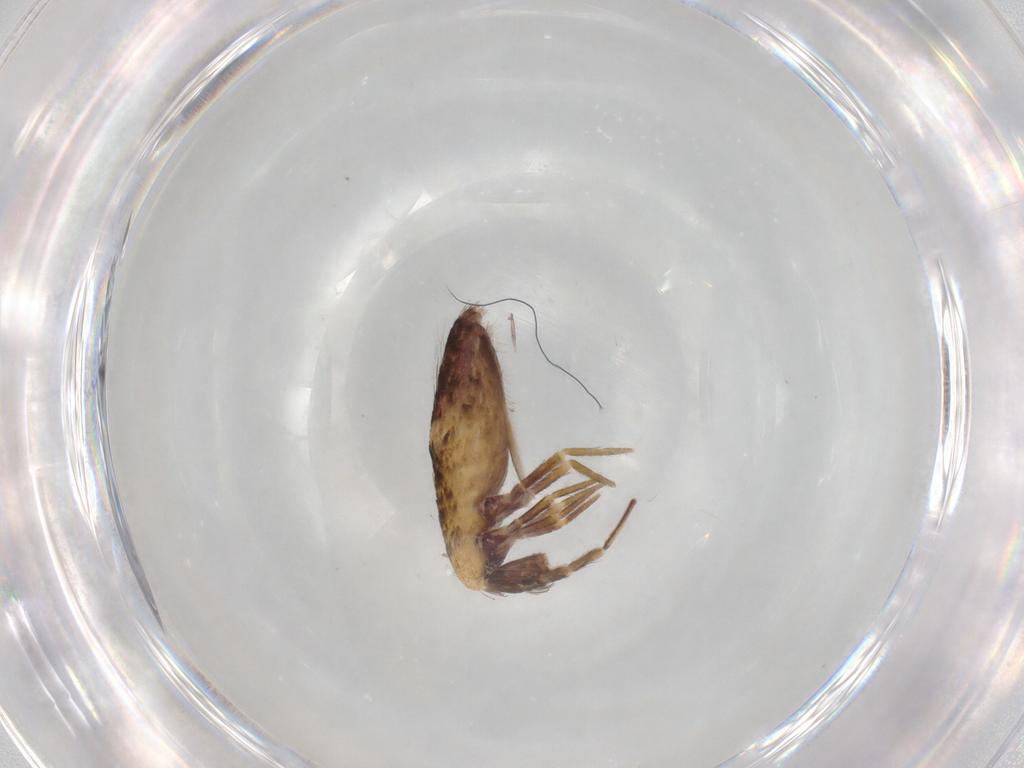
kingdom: Animalia
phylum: Arthropoda
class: Collembola
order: Entomobryomorpha
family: Entomobryidae
